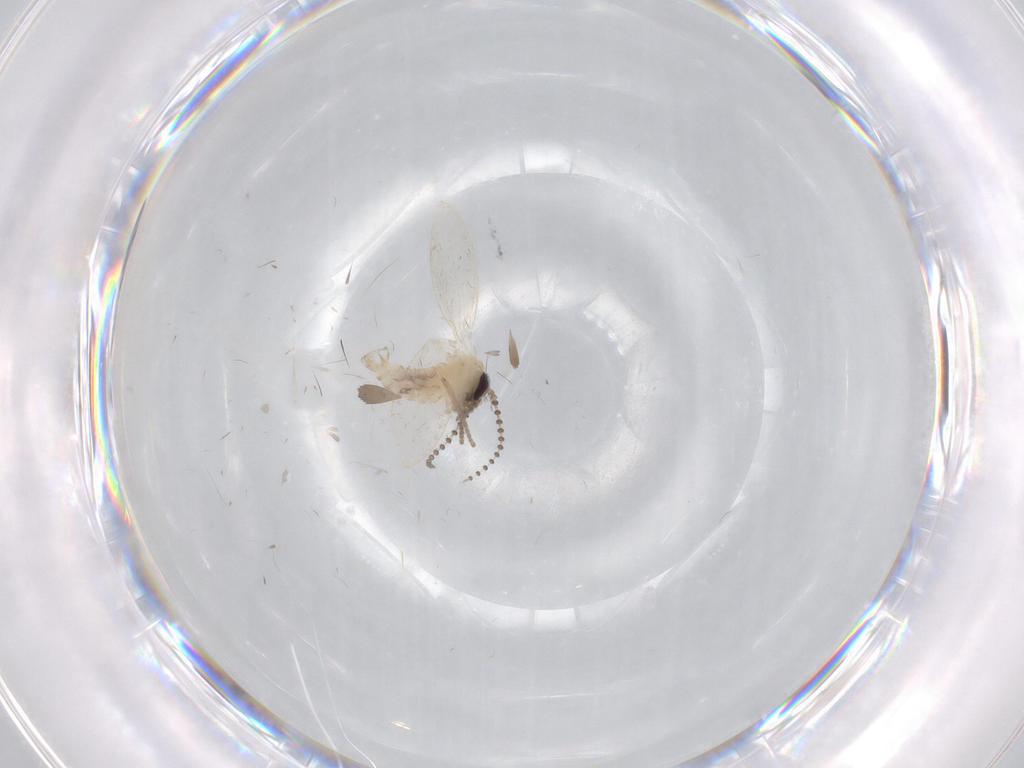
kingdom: Animalia
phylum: Arthropoda
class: Insecta
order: Diptera
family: Psychodidae
